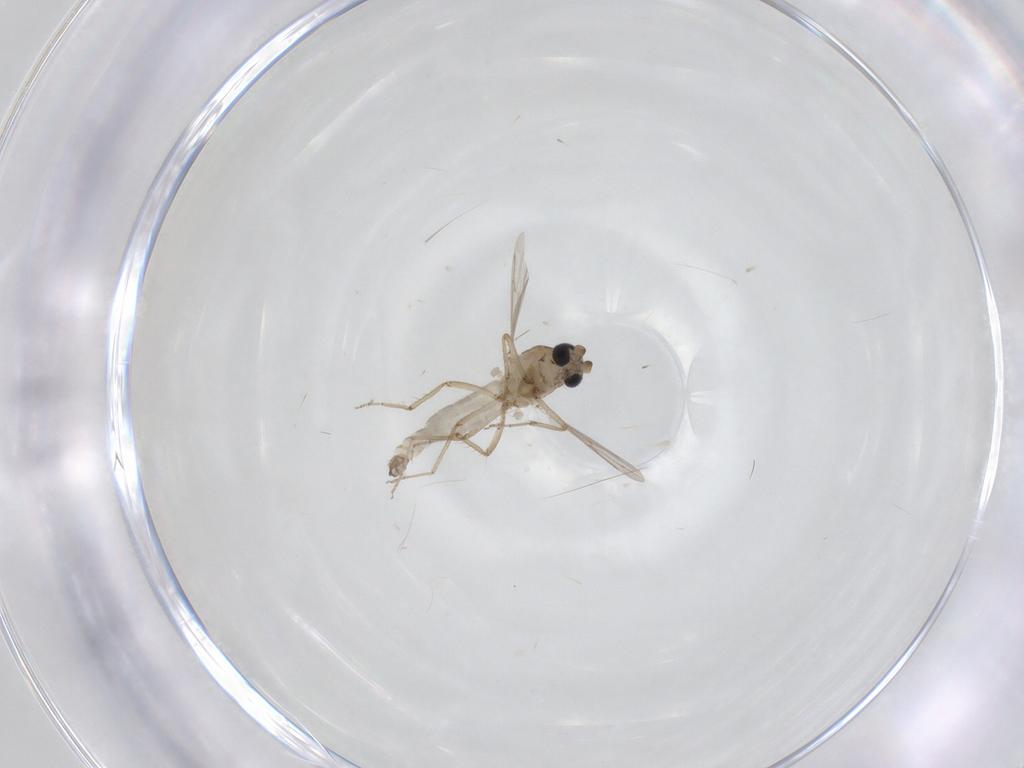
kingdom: Animalia
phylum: Arthropoda
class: Insecta
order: Diptera
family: Ceratopogonidae
